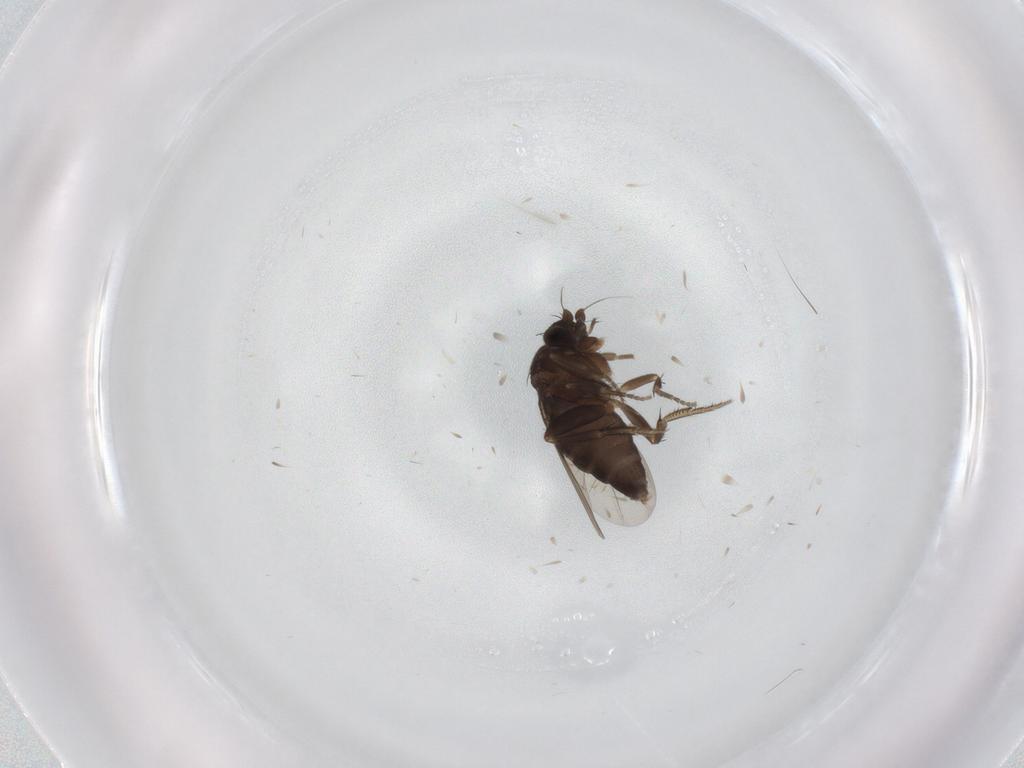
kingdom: Animalia
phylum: Arthropoda
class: Insecta
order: Diptera
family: Phoridae
